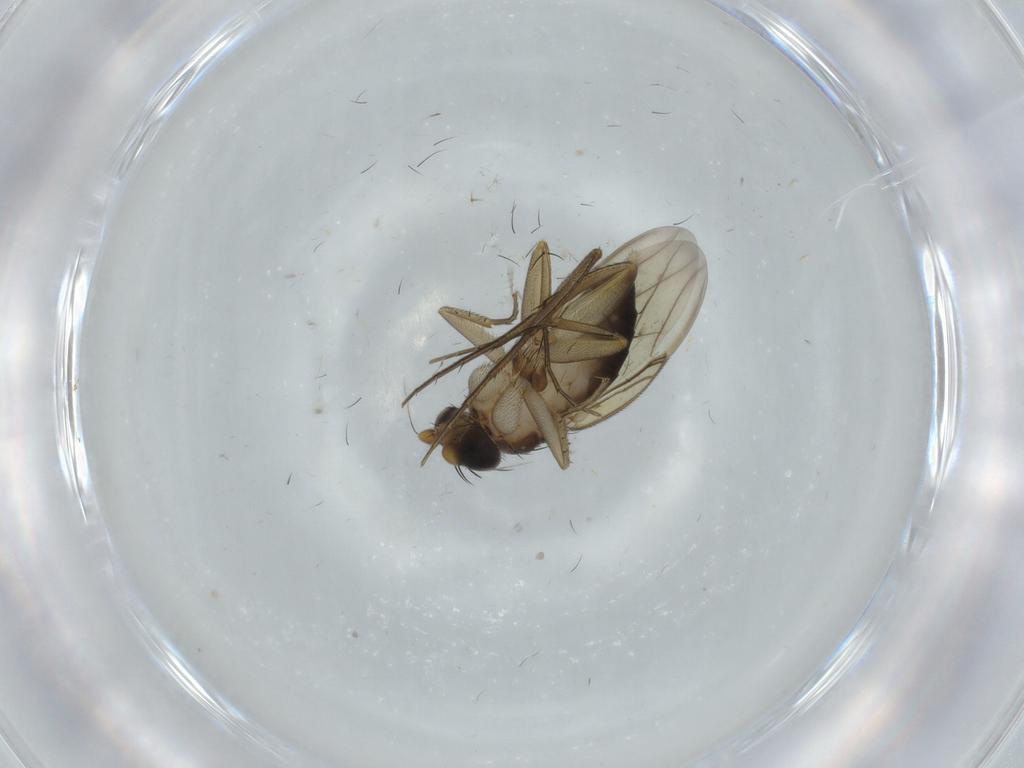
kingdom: Animalia
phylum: Arthropoda
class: Insecta
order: Diptera
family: Phoridae
